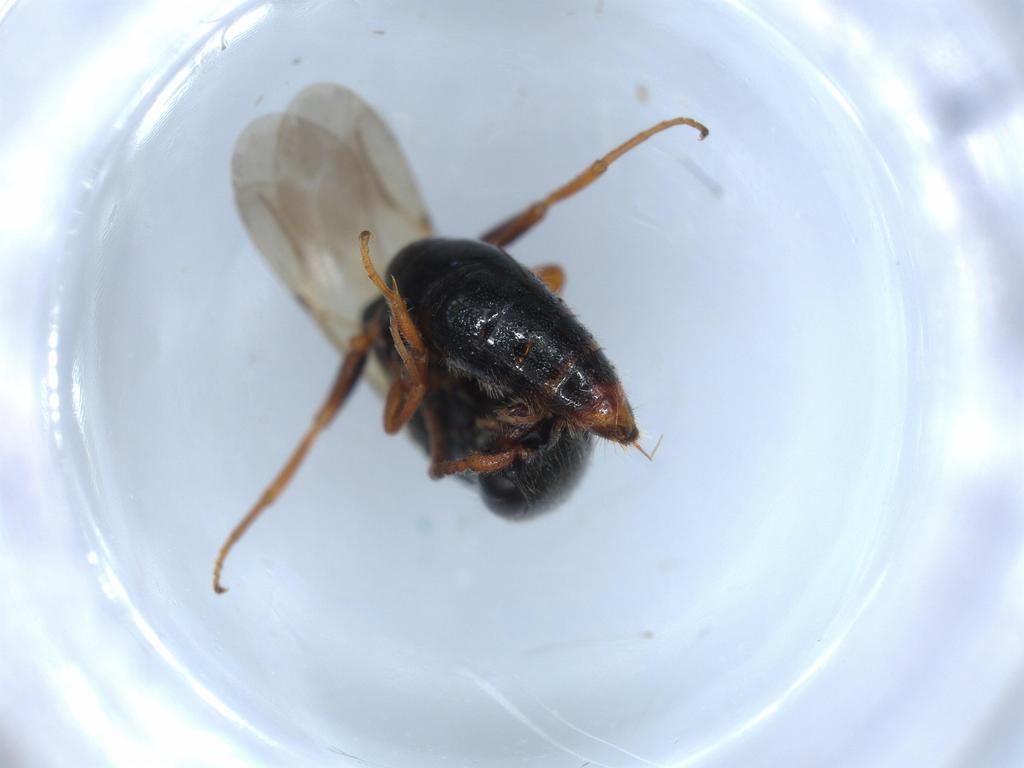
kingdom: Animalia
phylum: Arthropoda
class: Insecta
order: Hymenoptera
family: Bethylidae
